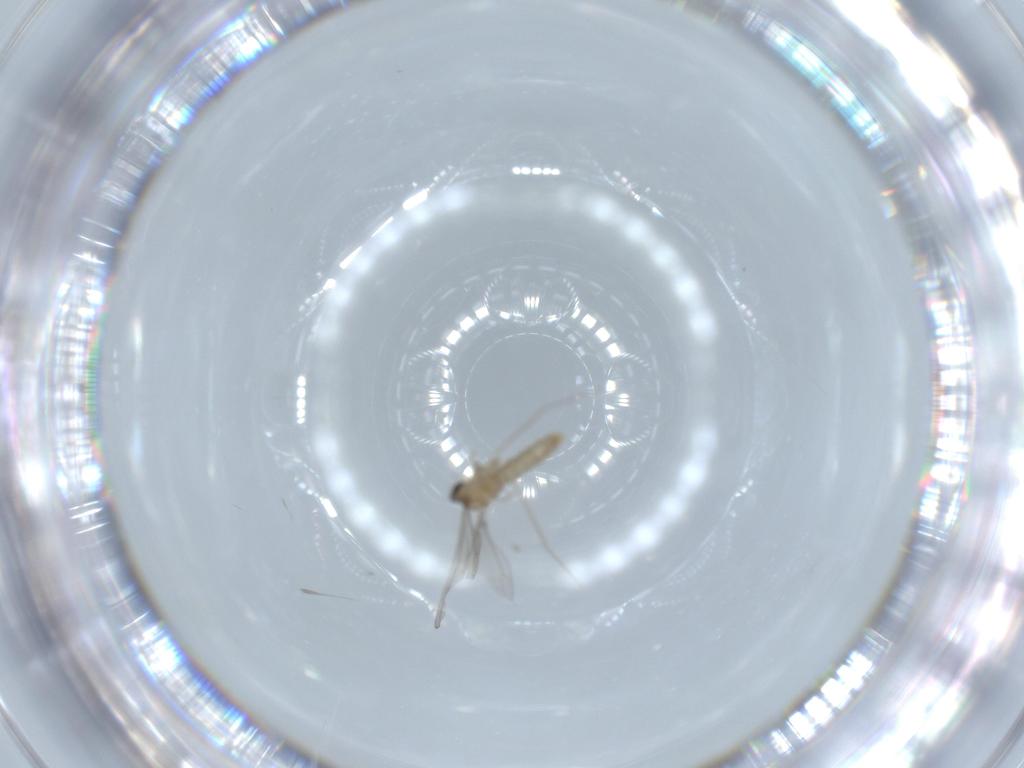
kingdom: Animalia
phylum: Arthropoda
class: Insecta
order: Diptera
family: Cecidomyiidae
